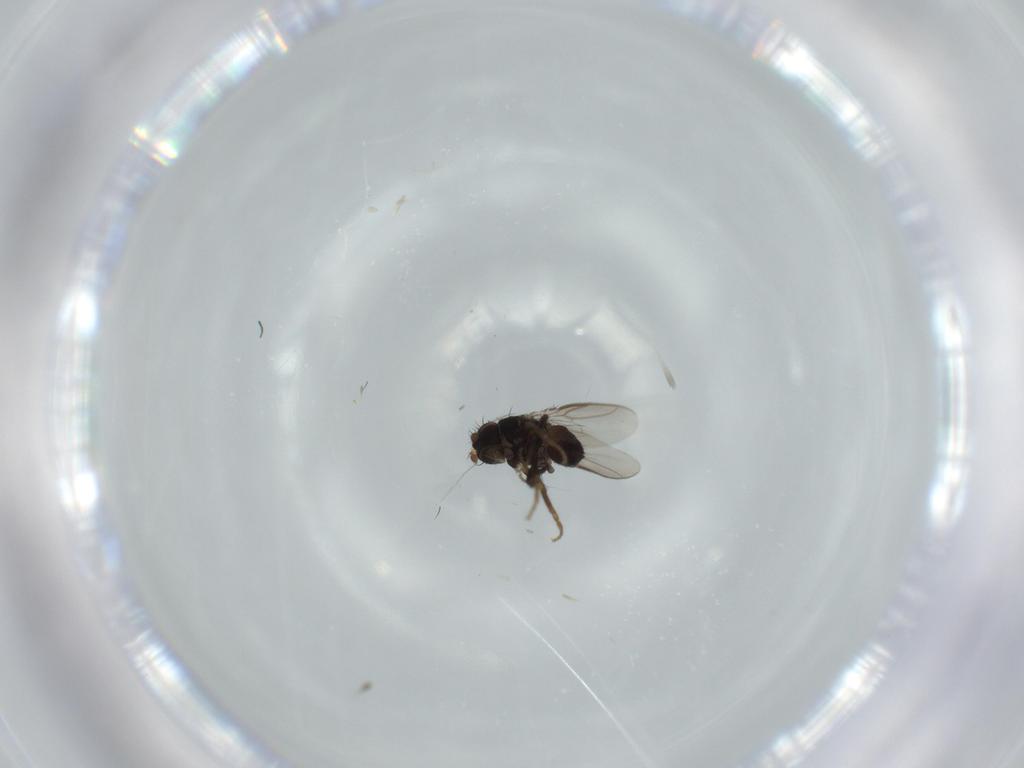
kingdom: Animalia
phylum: Arthropoda
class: Insecta
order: Diptera
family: Sphaeroceridae
